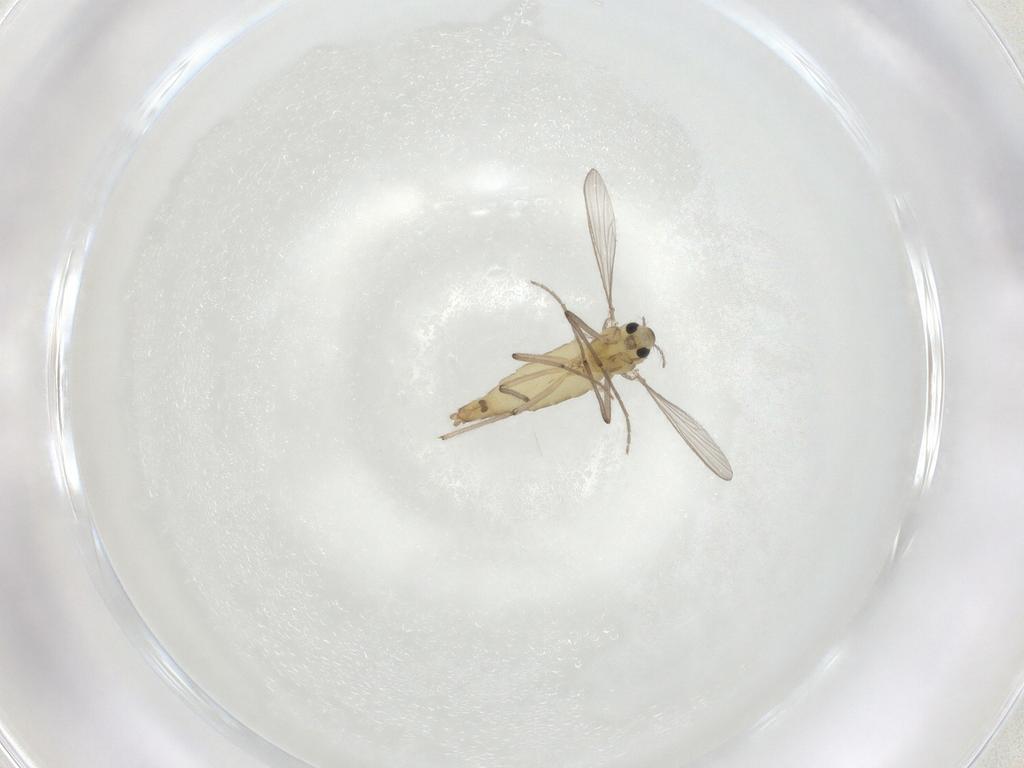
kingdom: Animalia
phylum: Arthropoda
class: Insecta
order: Diptera
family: Chironomidae
